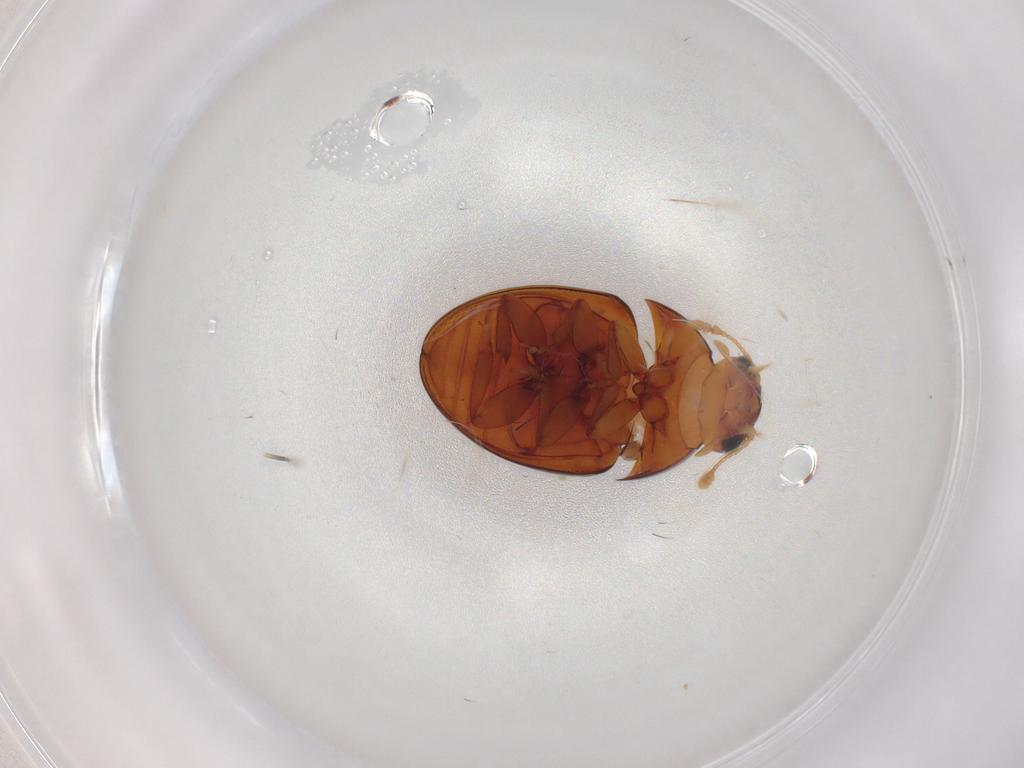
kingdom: Animalia
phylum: Arthropoda
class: Insecta
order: Coleoptera
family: Phalacridae
